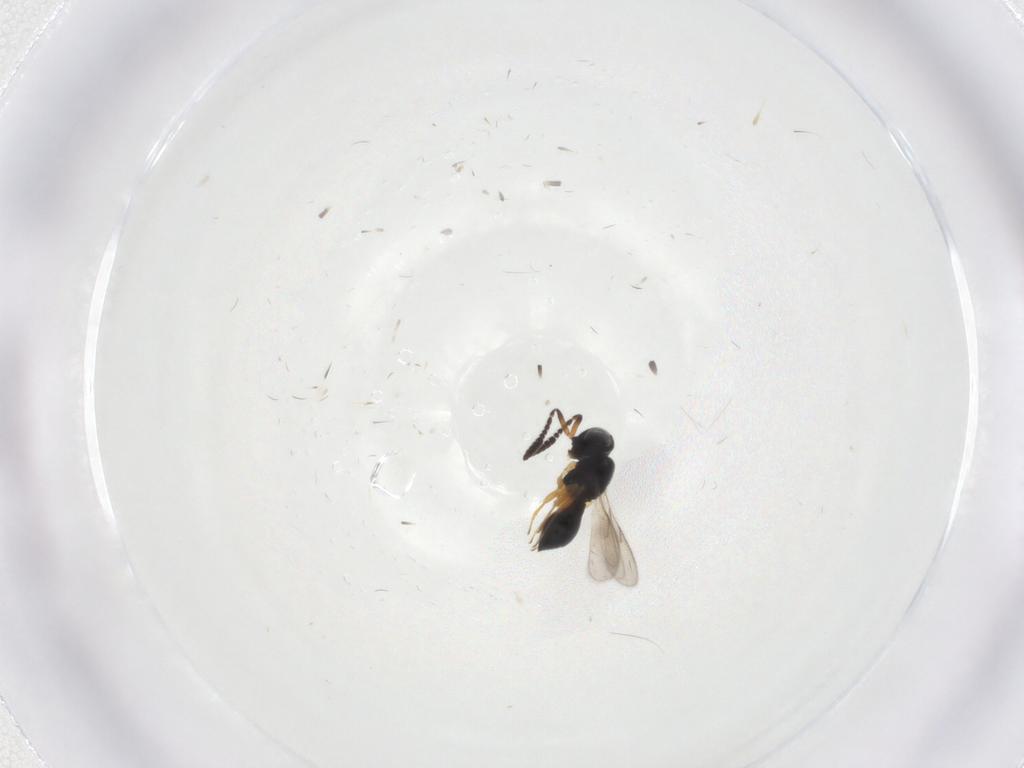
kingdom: Animalia
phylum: Arthropoda
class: Insecta
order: Hymenoptera
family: Scelionidae
